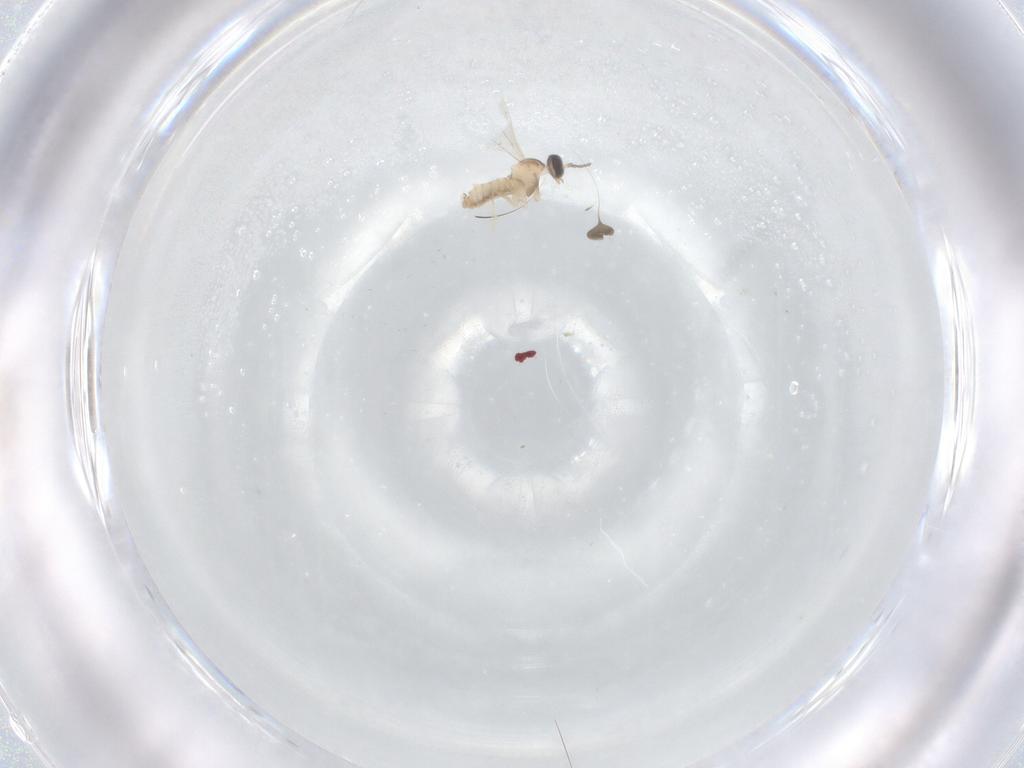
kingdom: Animalia
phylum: Arthropoda
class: Insecta
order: Diptera
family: Cecidomyiidae
